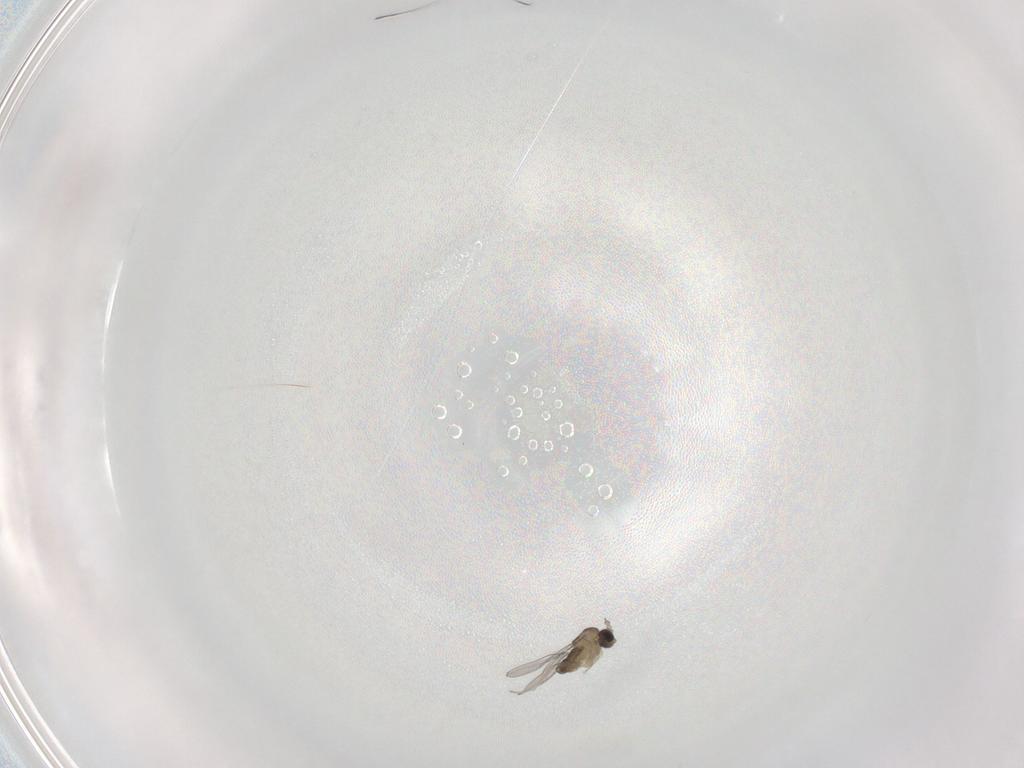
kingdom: Animalia
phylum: Arthropoda
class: Insecta
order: Diptera
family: Cecidomyiidae
